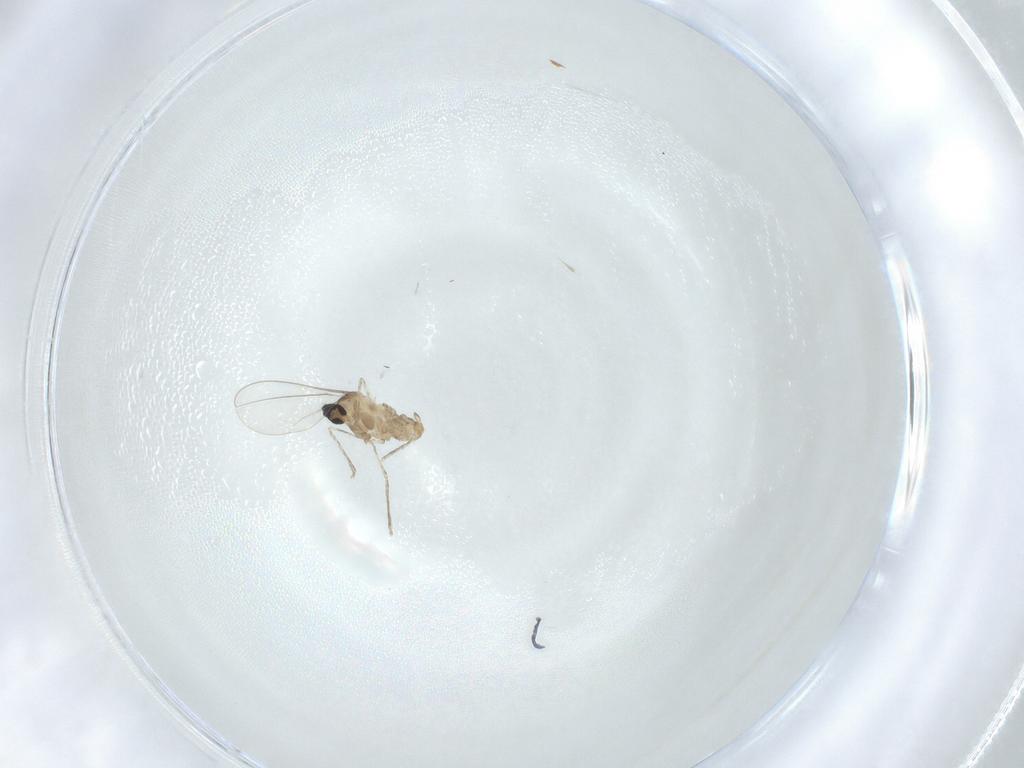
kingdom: Animalia
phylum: Arthropoda
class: Insecta
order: Diptera
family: Cecidomyiidae
